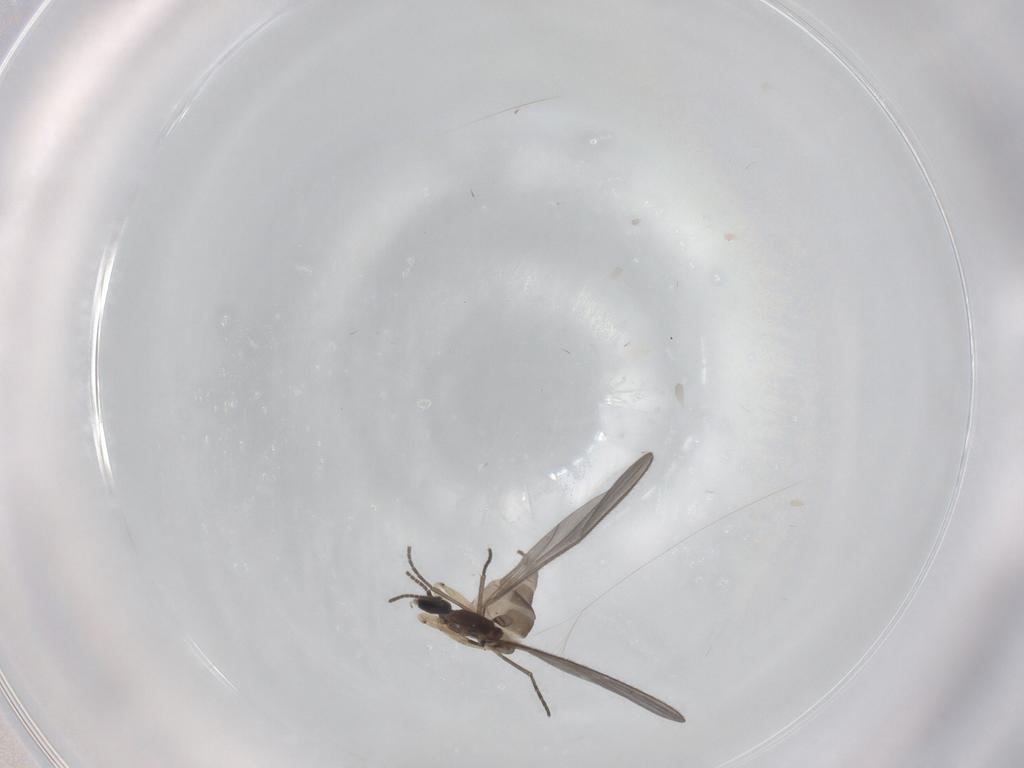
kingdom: Animalia
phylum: Arthropoda
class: Insecta
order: Diptera
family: Sciaridae
